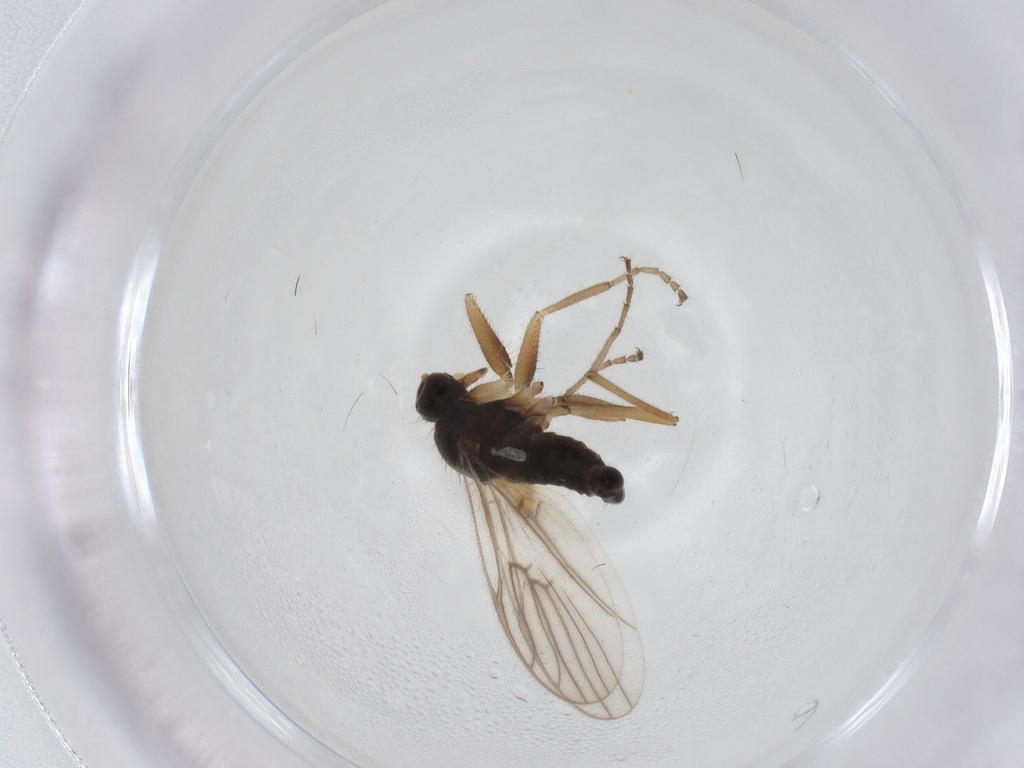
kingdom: Animalia
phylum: Arthropoda
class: Insecta
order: Diptera
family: Hybotidae
